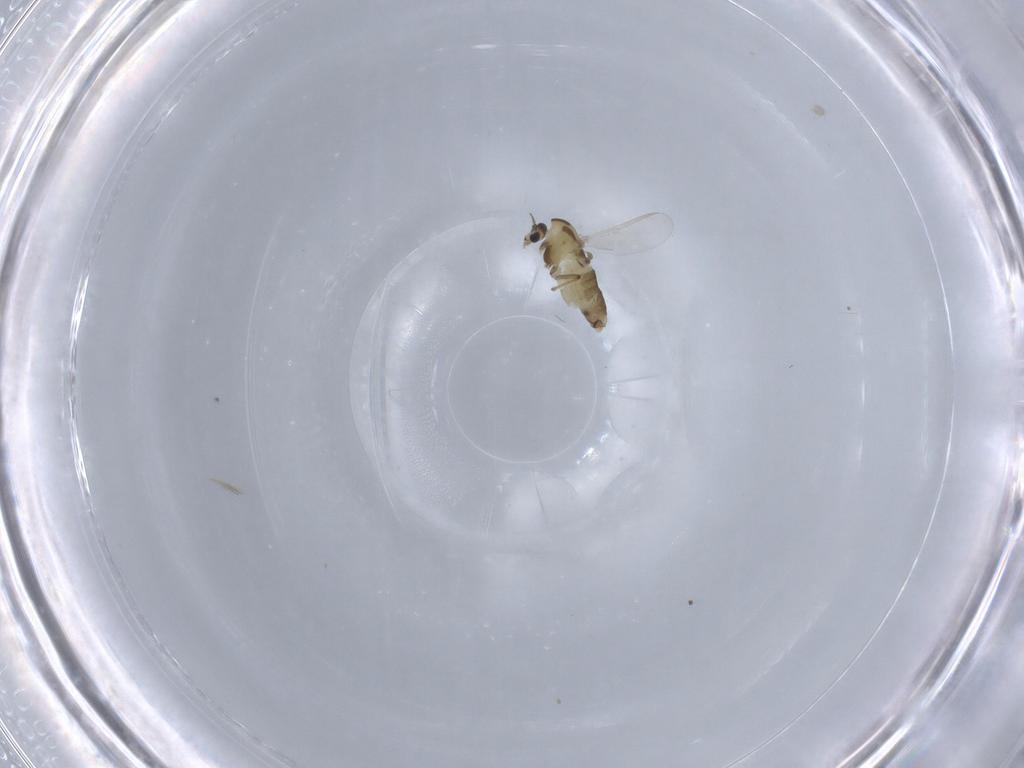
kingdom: Animalia
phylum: Arthropoda
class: Insecta
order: Diptera
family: Chironomidae
